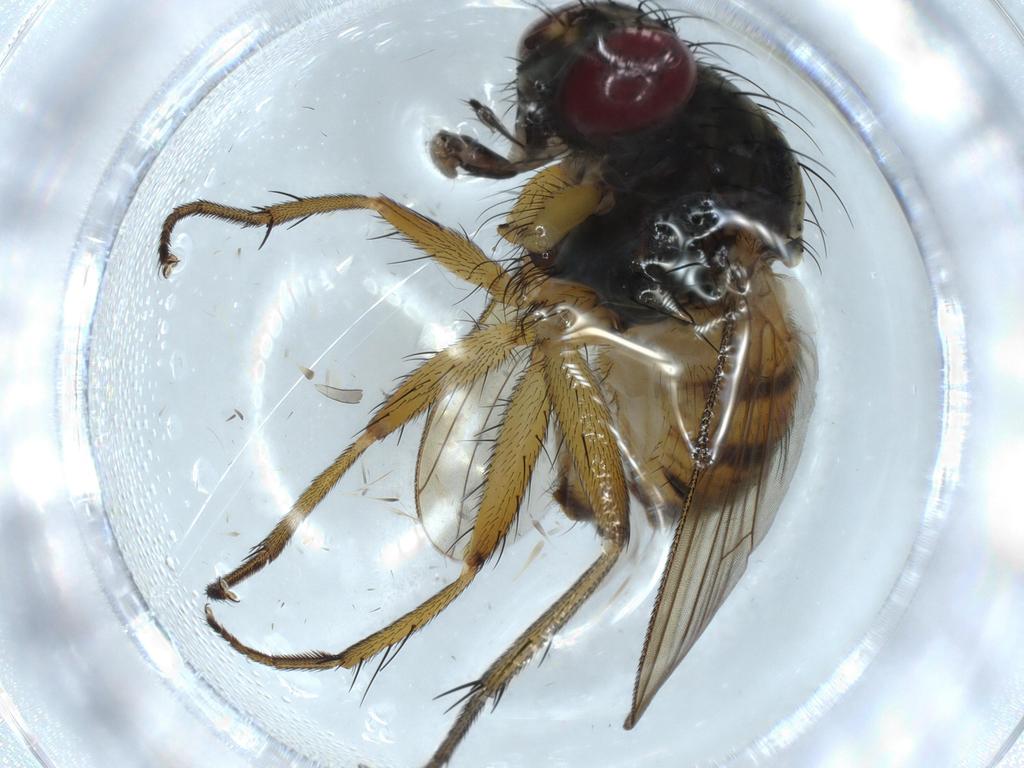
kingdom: Animalia
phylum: Arthropoda
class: Insecta
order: Diptera
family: Muscidae
